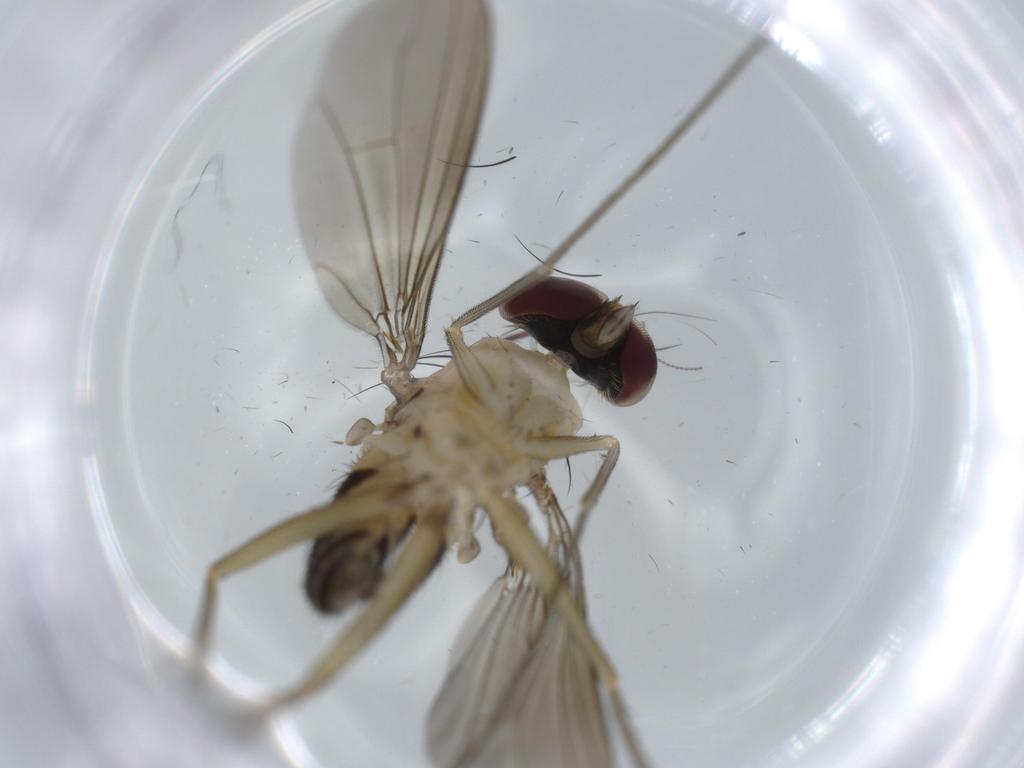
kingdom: Animalia
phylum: Arthropoda
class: Insecta
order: Diptera
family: Dolichopodidae
